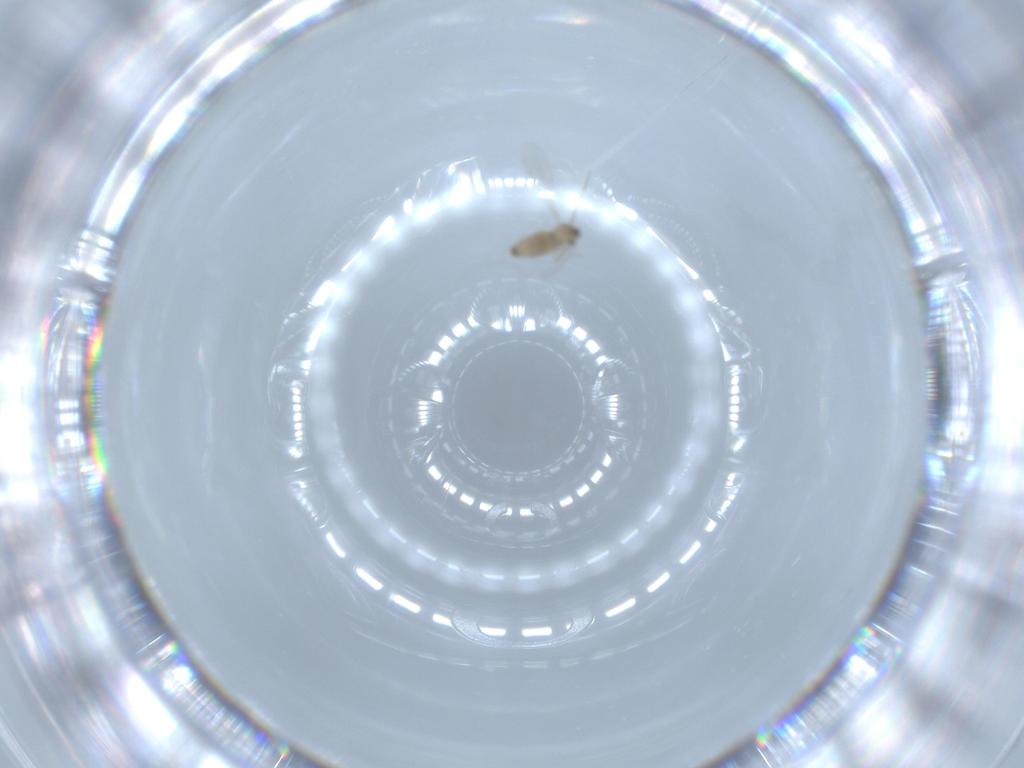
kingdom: Animalia
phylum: Arthropoda
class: Insecta
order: Diptera
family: Cecidomyiidae
